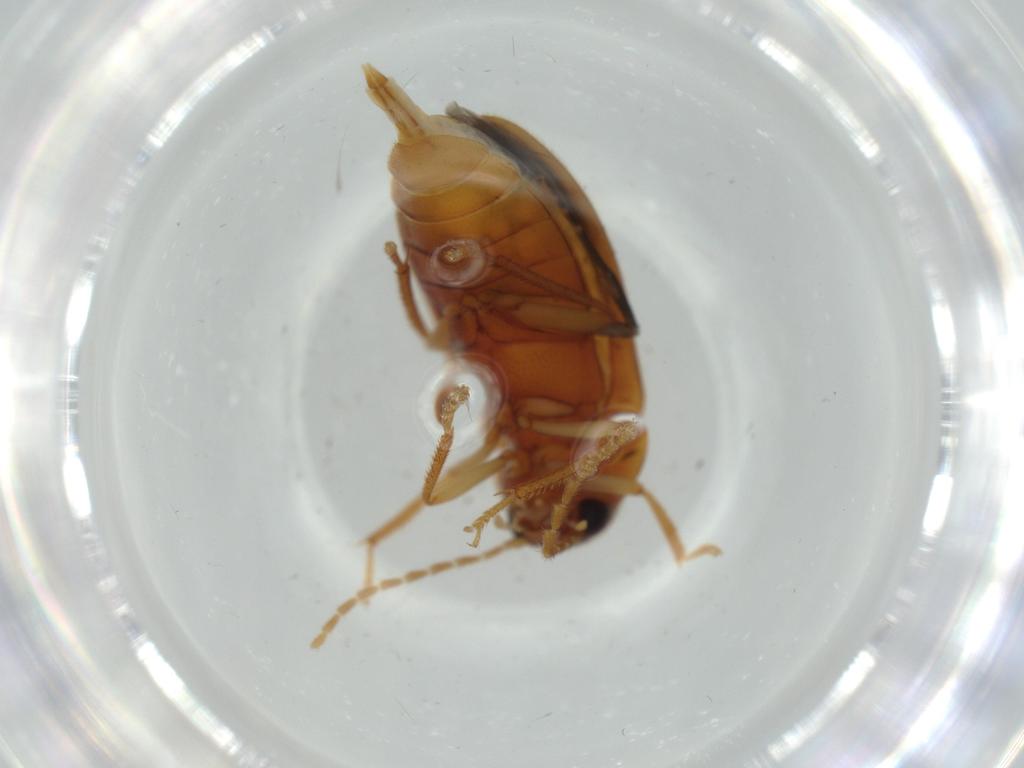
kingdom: Animalia
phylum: Arthropoda
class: Insecta
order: Coleoptera
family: Ptilodactylidae
